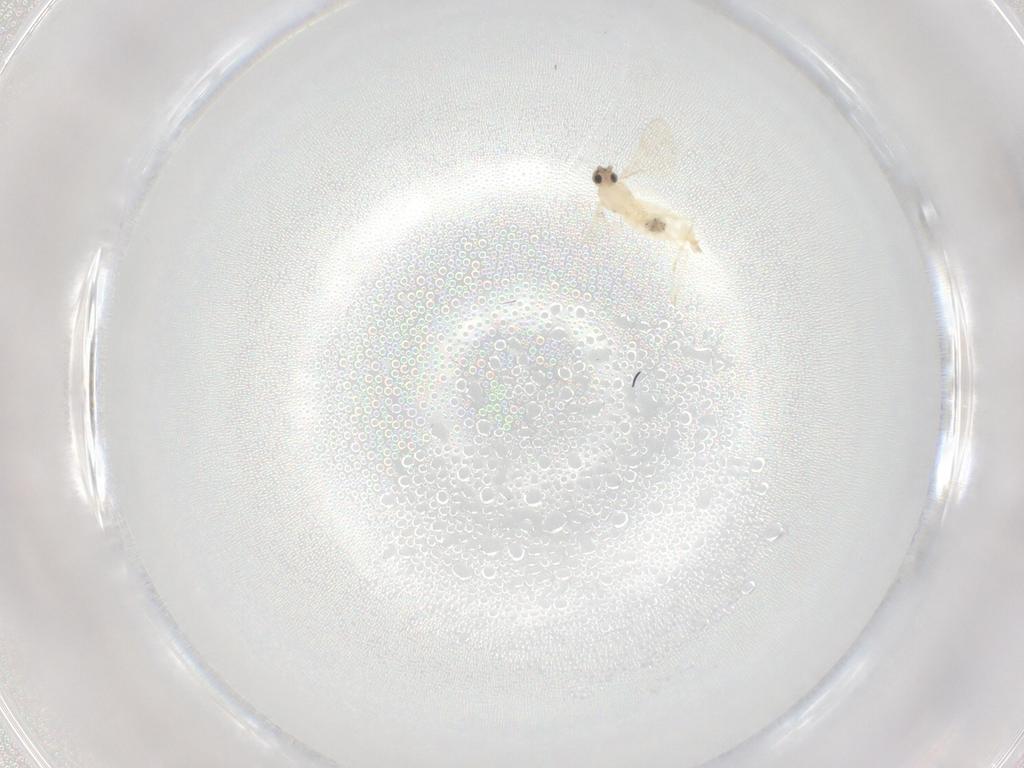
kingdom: Animalia
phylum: Arthropoda
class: Insecta
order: Diptera
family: Cecidomyiidae
